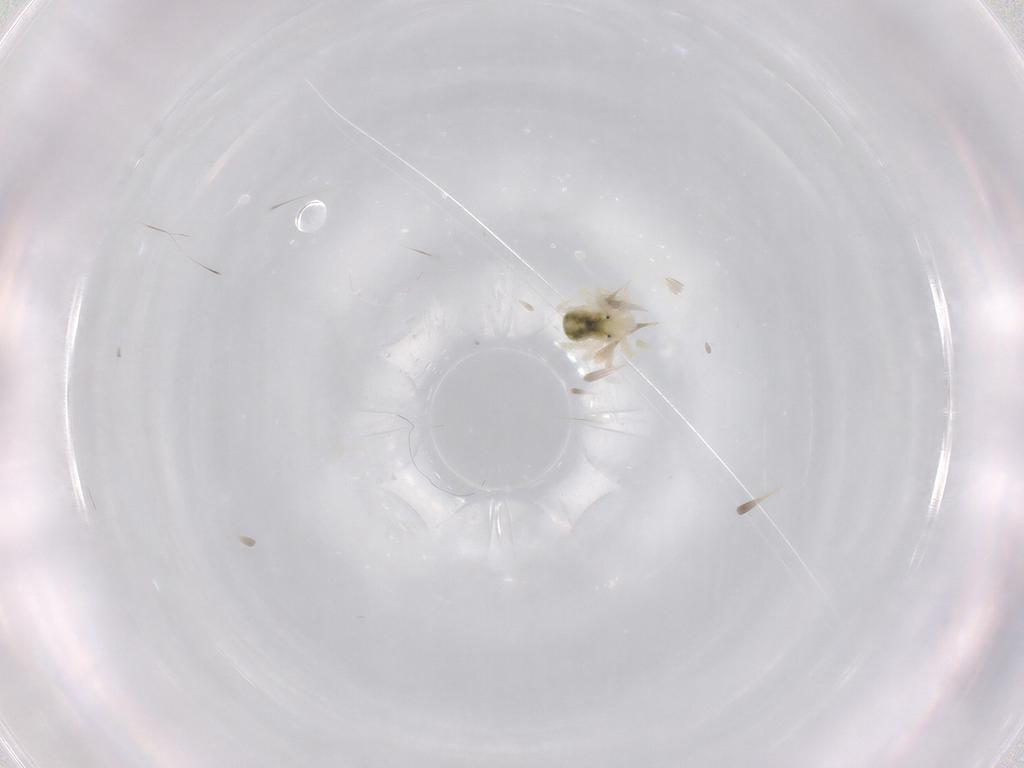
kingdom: Animalia
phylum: Arthropoda
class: Arachnida
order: Trombidiformes
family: Anystidae
